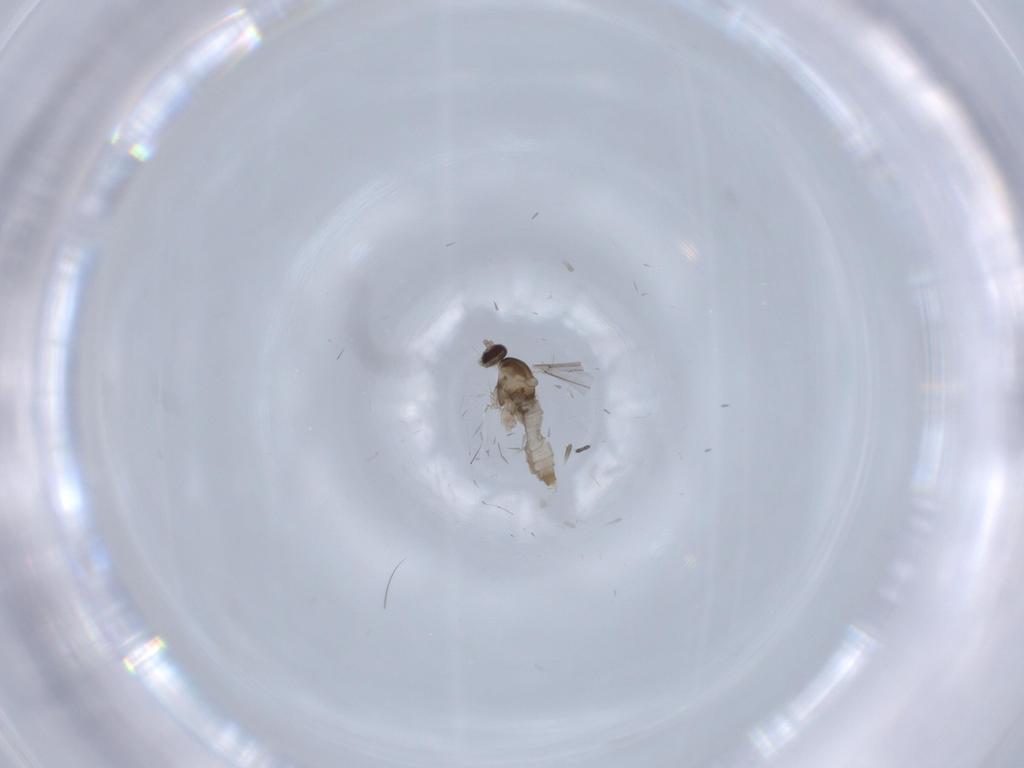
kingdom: Animalia
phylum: Arthropoda
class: Insecta
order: Diptera
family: Cecidomyiidae
